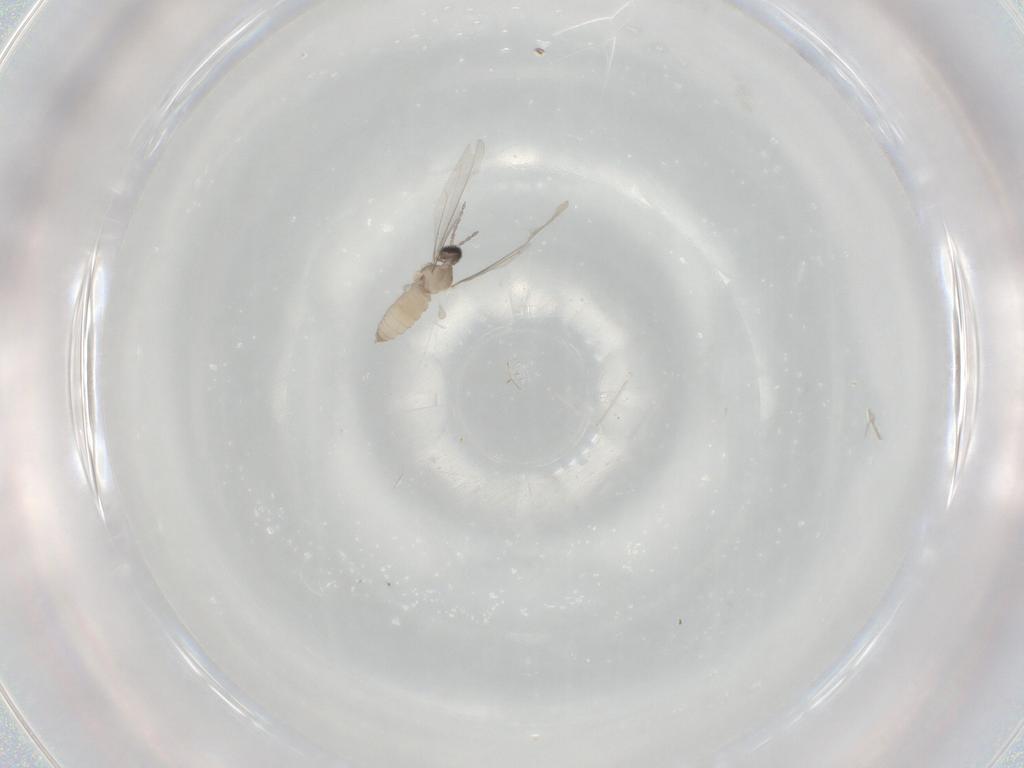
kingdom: Animalia
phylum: Arthropoda
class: Insecta
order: Diptera
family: Cecidomyiidae
